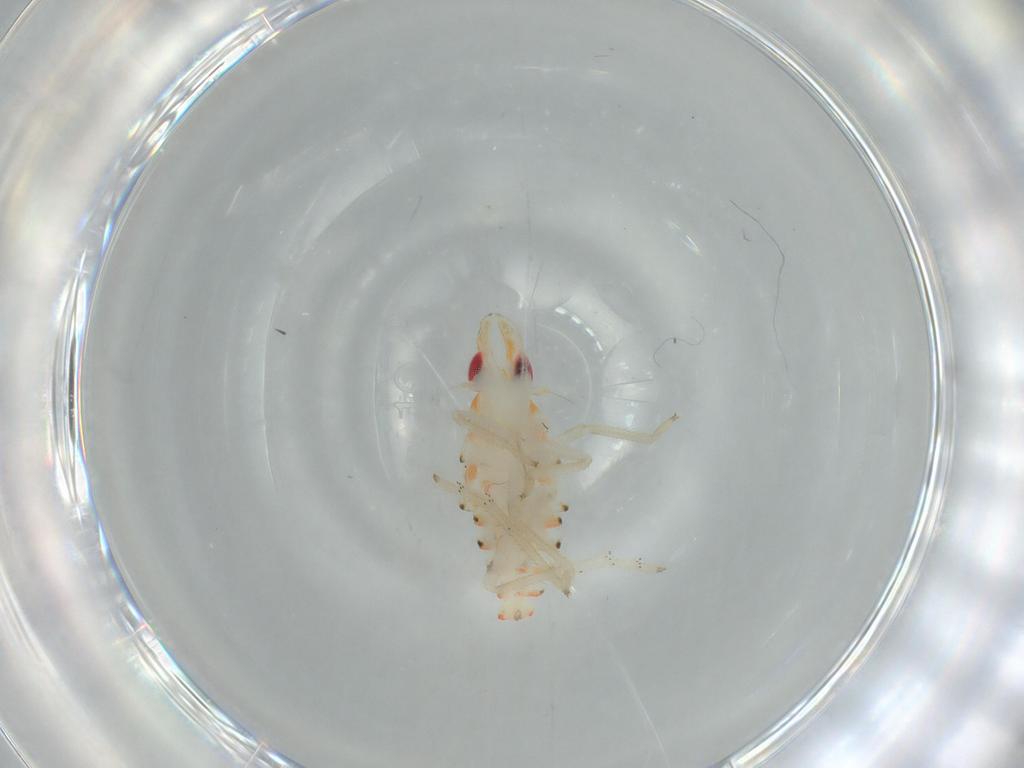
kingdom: Animalia
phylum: Arthropoda
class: Insecta
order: Hemiptera
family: Tropiduchidae
